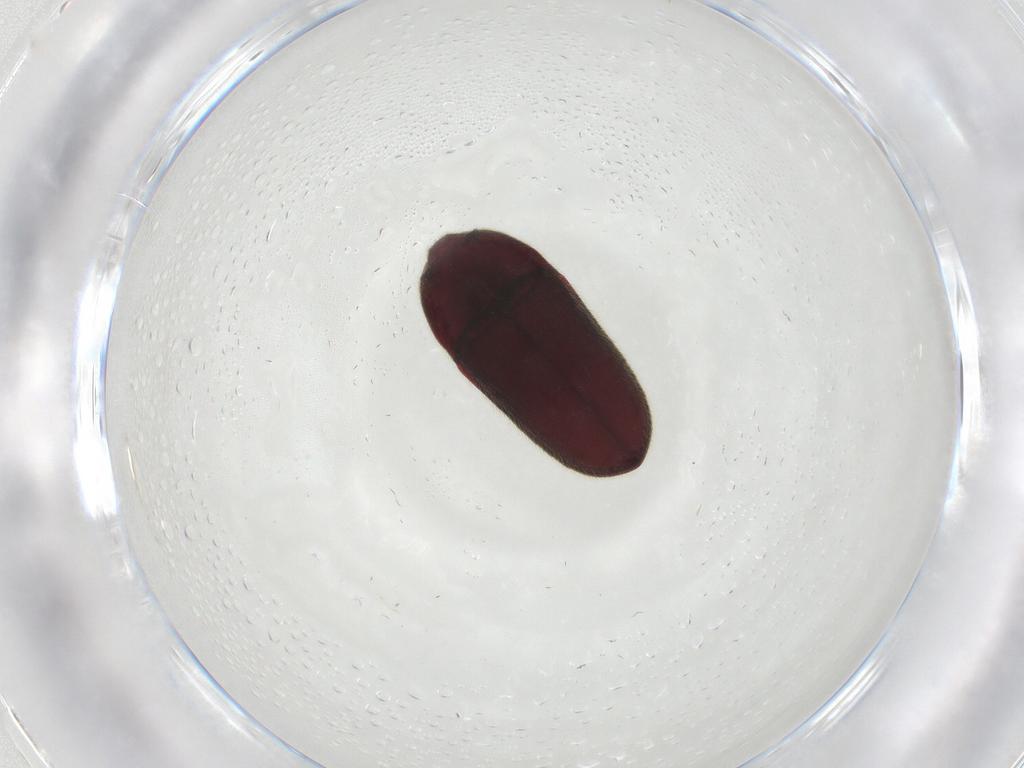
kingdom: Animalia
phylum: Arthropoda
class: Insecta
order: Coleoptera
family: Throscidae
